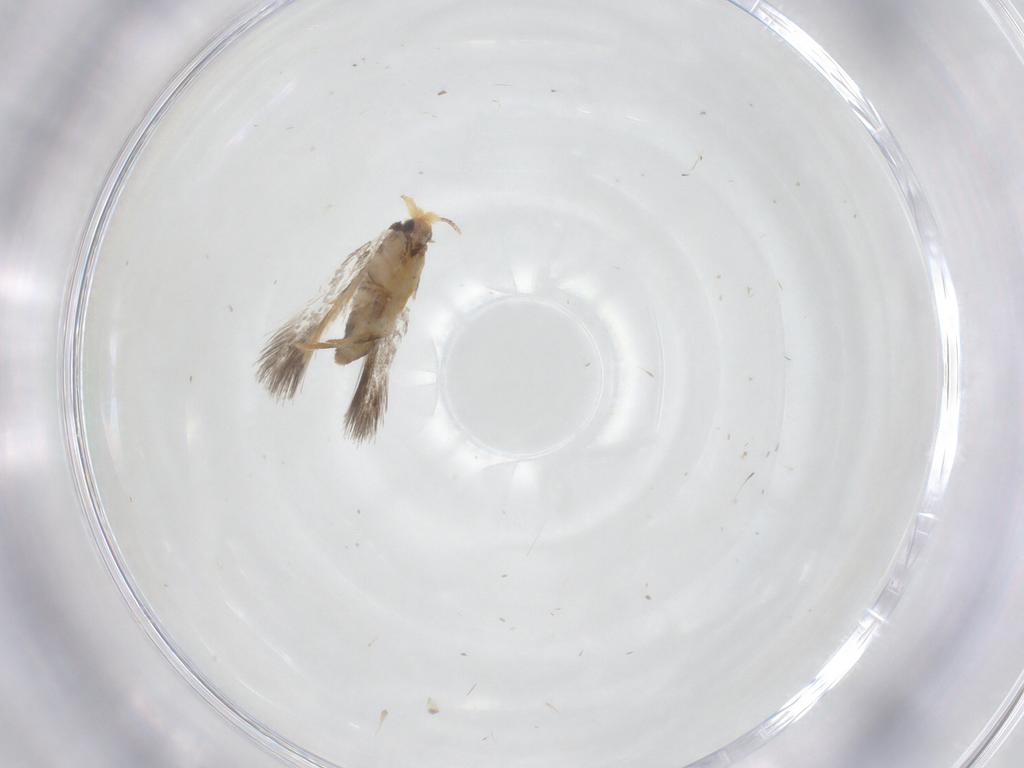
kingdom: Animalia
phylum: Arthropoda
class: Insecta
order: Lepidoptera
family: Nepticulidae
